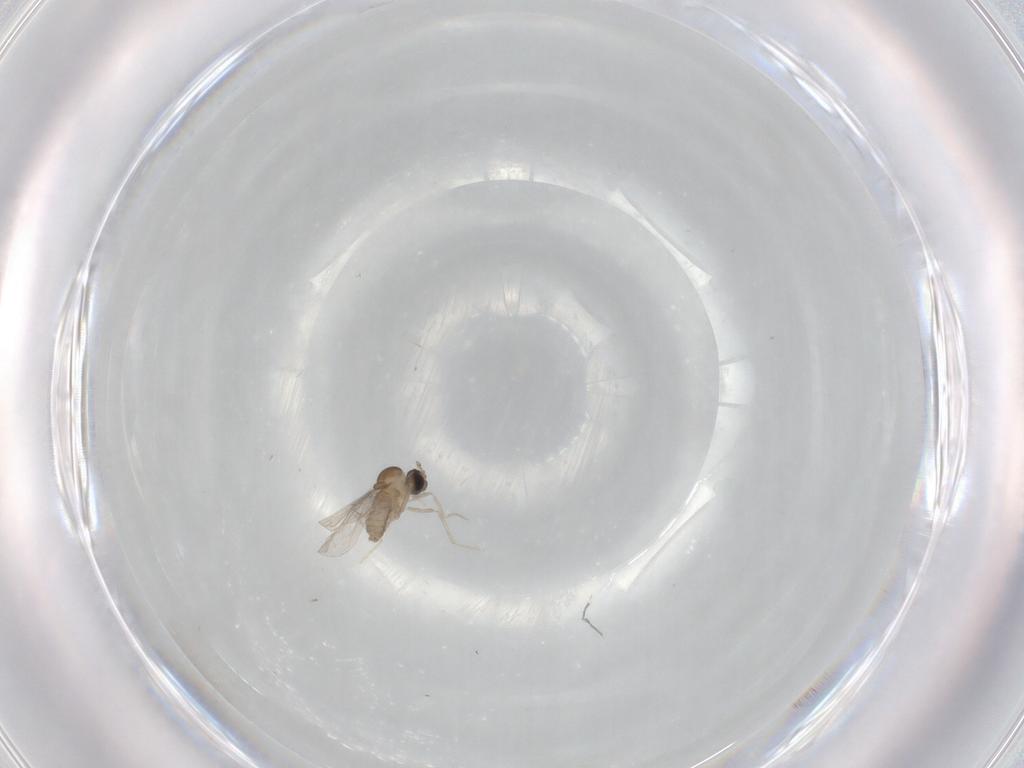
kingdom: Animalia
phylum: Arthropoda
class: Insecta
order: Diptera
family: Cecidomyiidae
